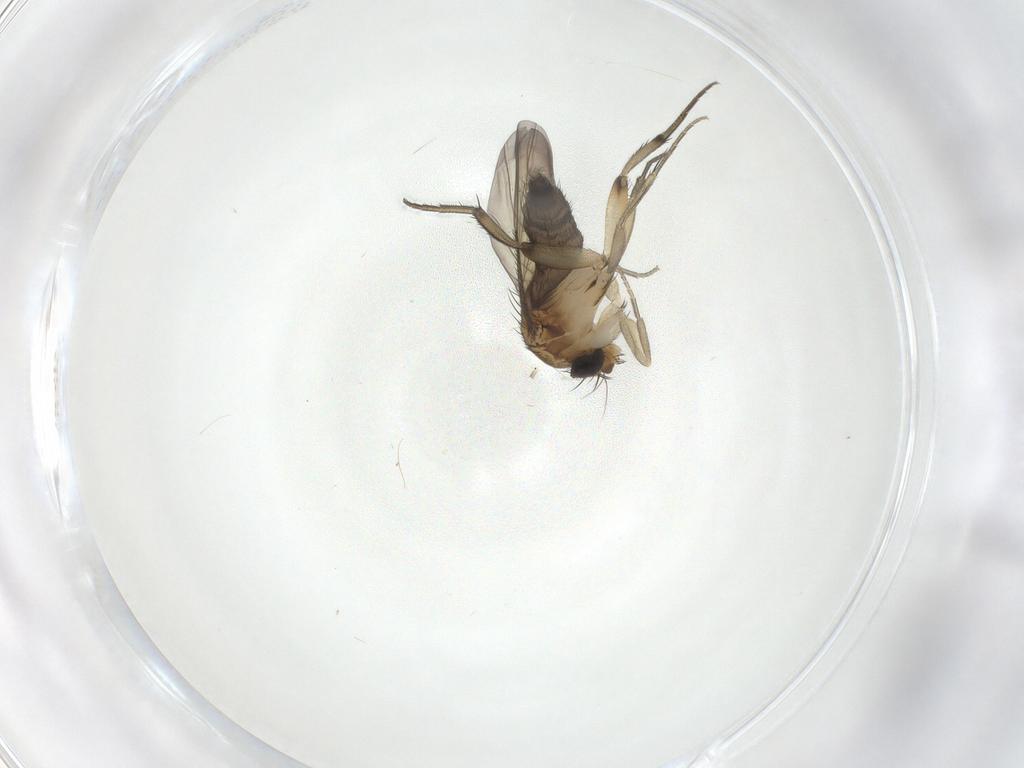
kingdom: Animalia
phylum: Arthropoda
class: Insecta
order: Diptera
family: Phoridae
